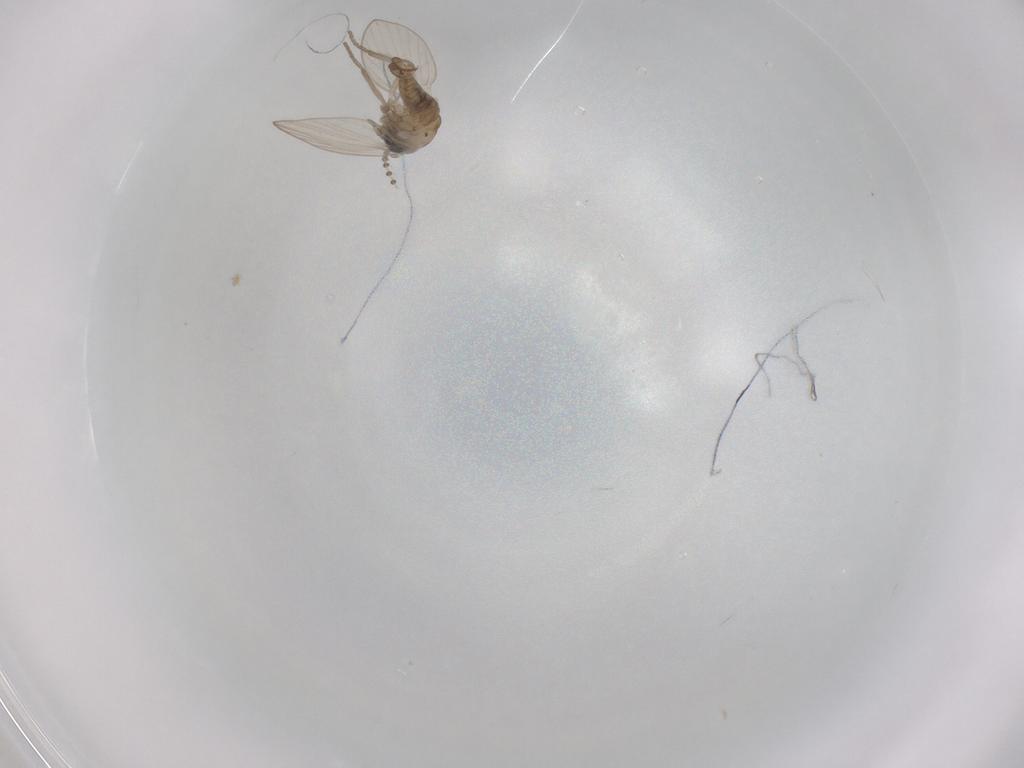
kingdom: Animalia
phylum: Arthropoda
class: Insecta
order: Diptera
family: Psychodidae
